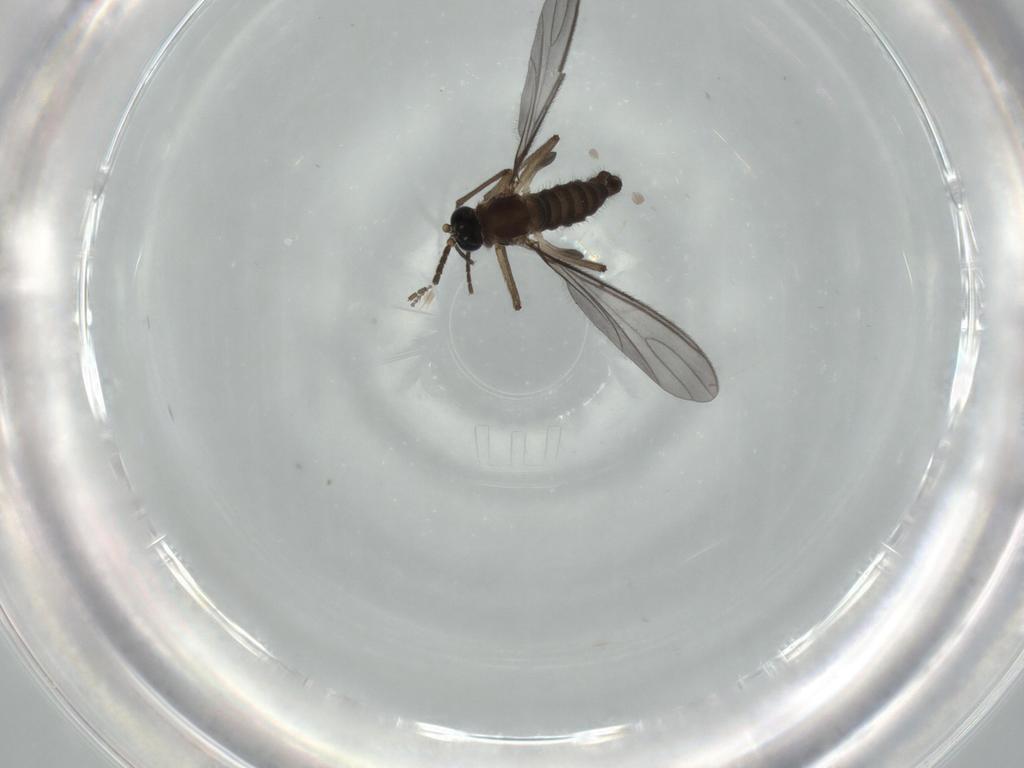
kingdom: Animalia
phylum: Arthropoda
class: Insecta
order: Diptera
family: Sciaridae
